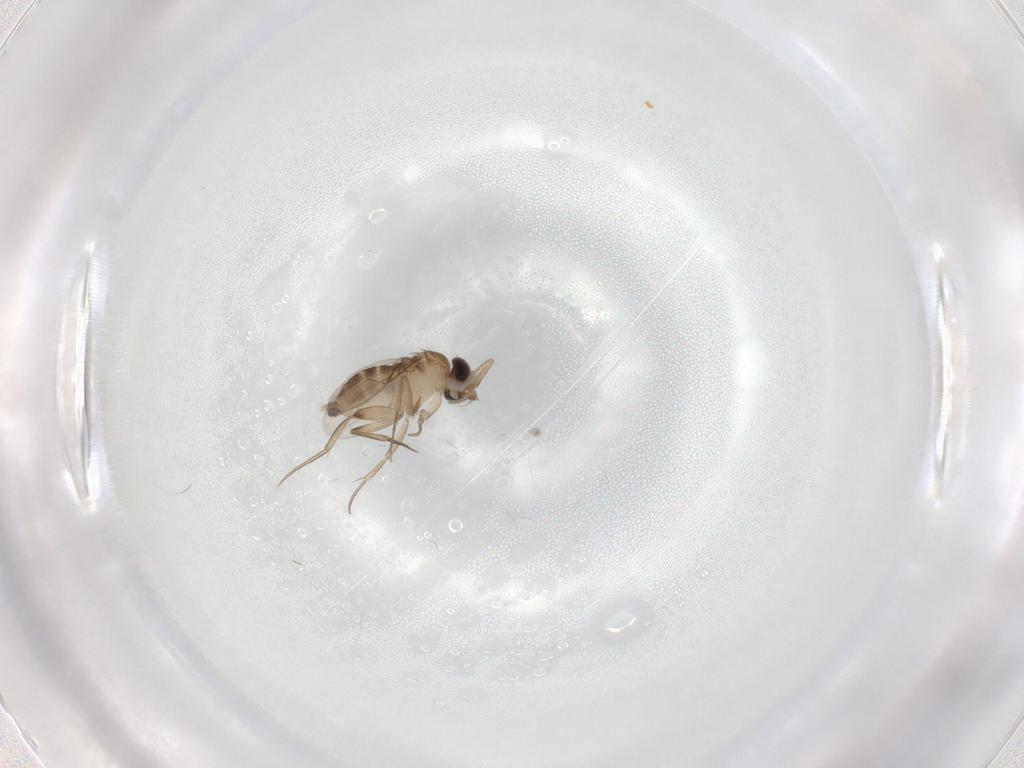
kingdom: Animalia
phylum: Arthropoda
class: Insecta
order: Diptera
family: Phoridae
